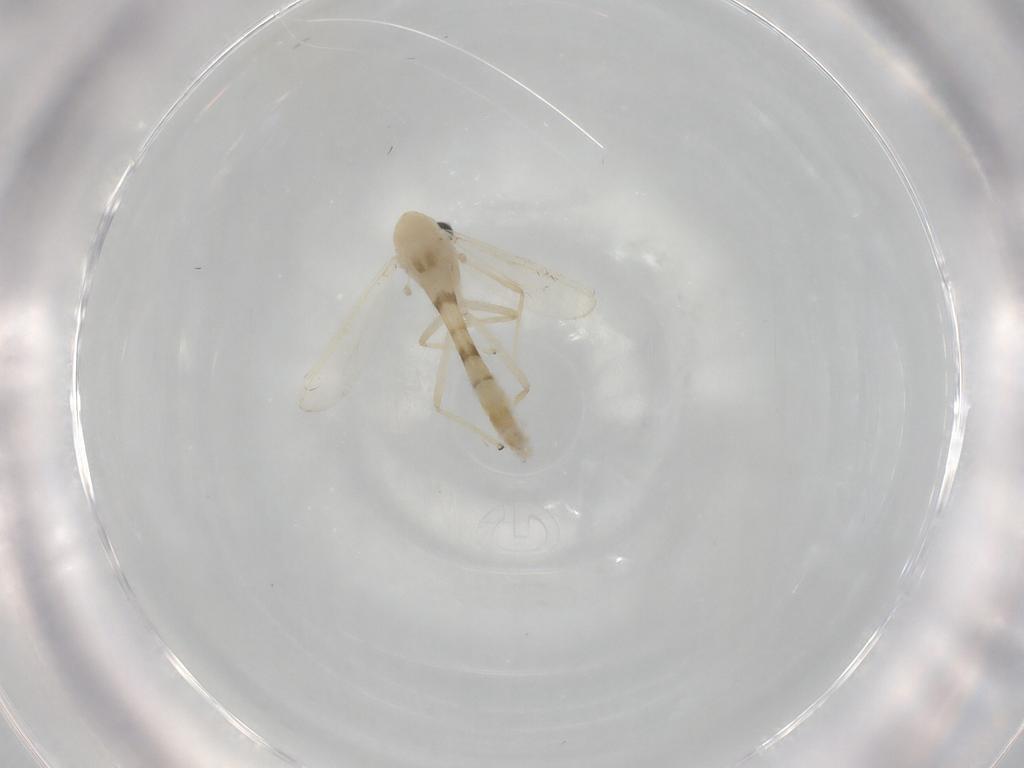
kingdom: Animalia
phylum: Arthropoda
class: Insecta
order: Diptera
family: Chironomidae
